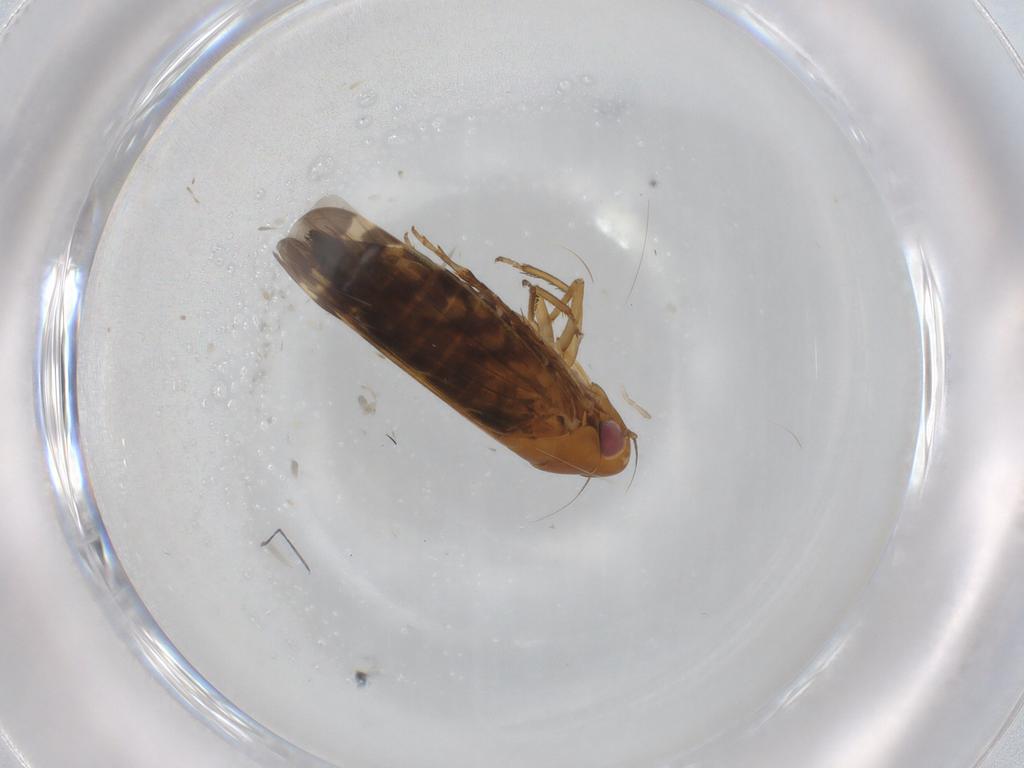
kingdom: Animalia
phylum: Arthropoda
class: Insecta
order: Hemiptera
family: Cicadellidae
